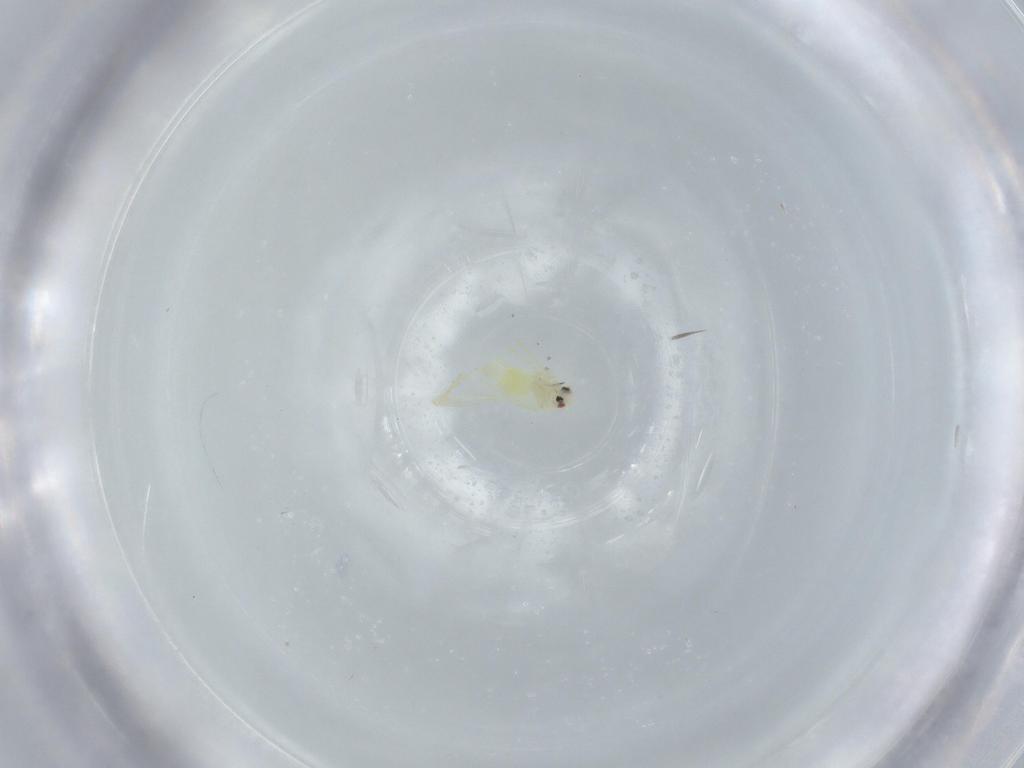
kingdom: Animalia
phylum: Arthropoda
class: Insecta
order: Hemiptera
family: Aleyrodidae
